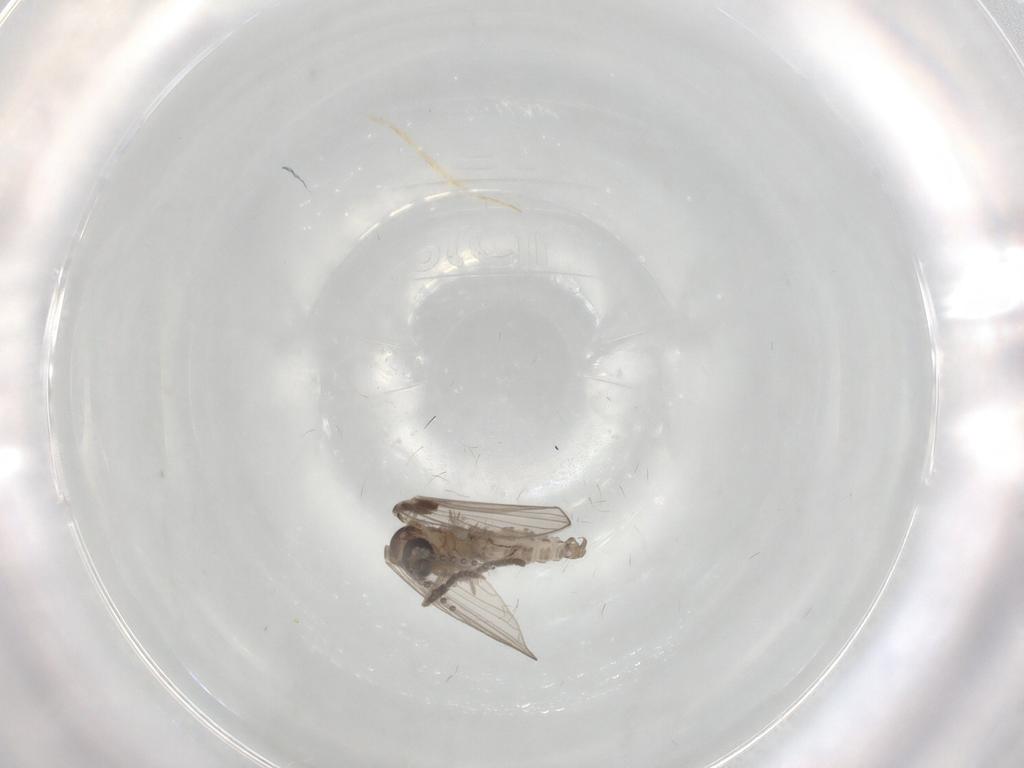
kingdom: Animalia
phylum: Arthropoda
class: Insecta
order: Diptera
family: Psychodidae
